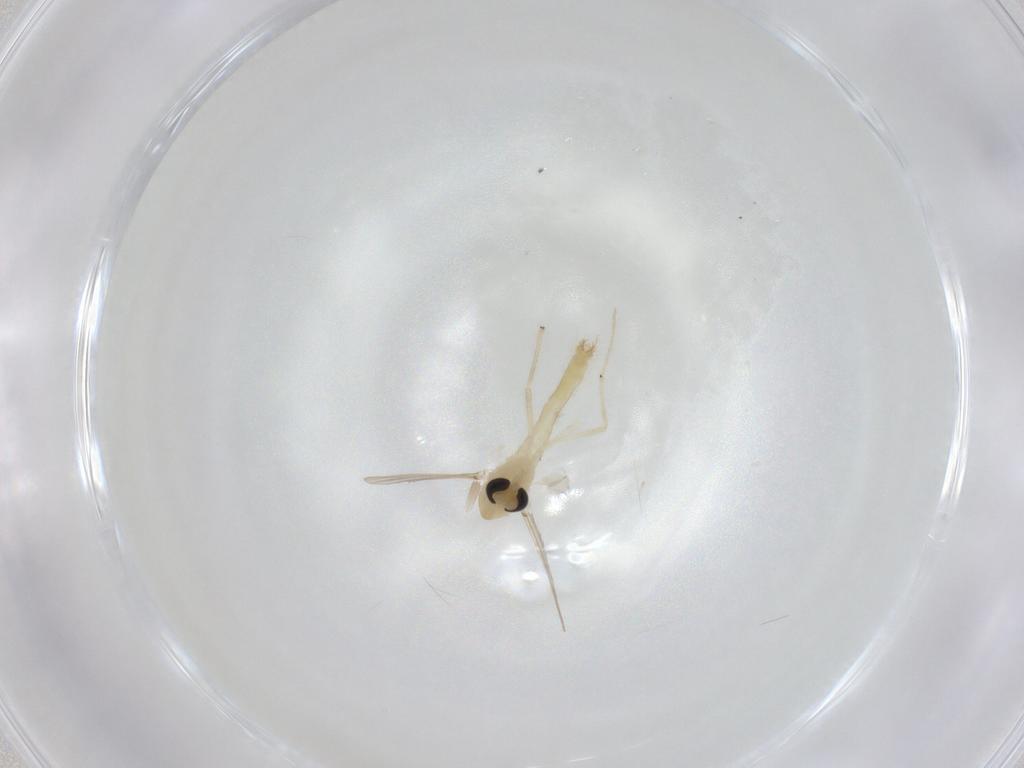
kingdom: Animalia
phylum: Arthropoda
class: Insecta
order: Diptera
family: Chironomidae
